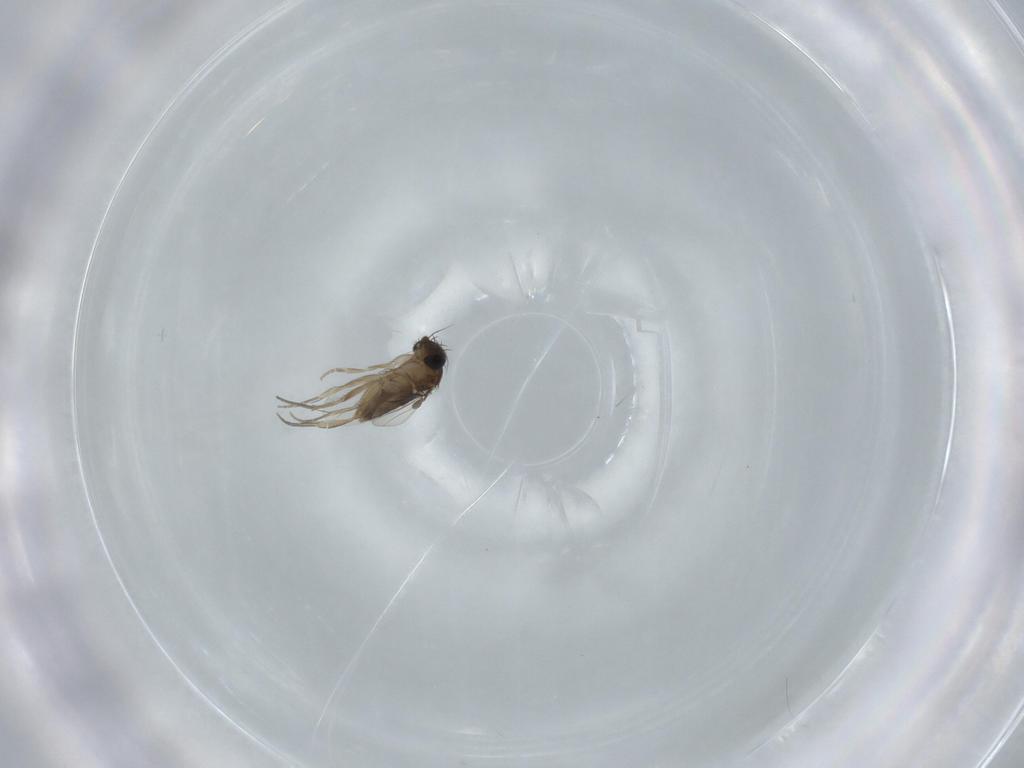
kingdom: Animalia
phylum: Arthropoda
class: Insecta
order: Diptera
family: Phoridae
